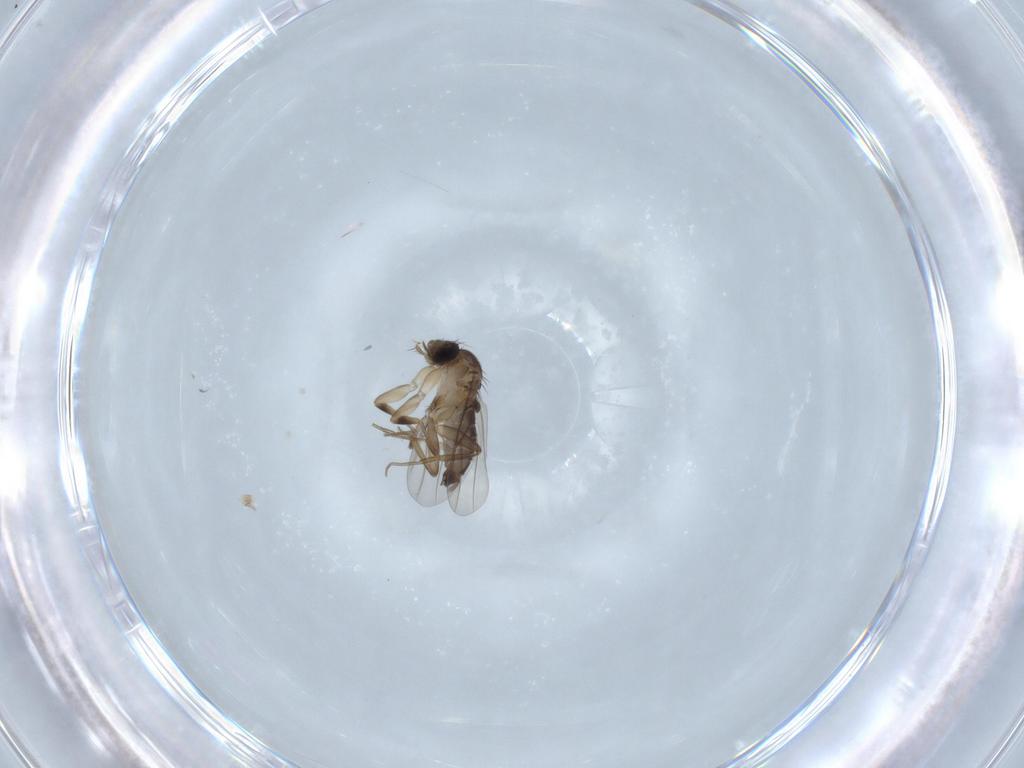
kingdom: Animalia
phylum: Arthropoda
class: Insecta
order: Diptera
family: Phoridae
